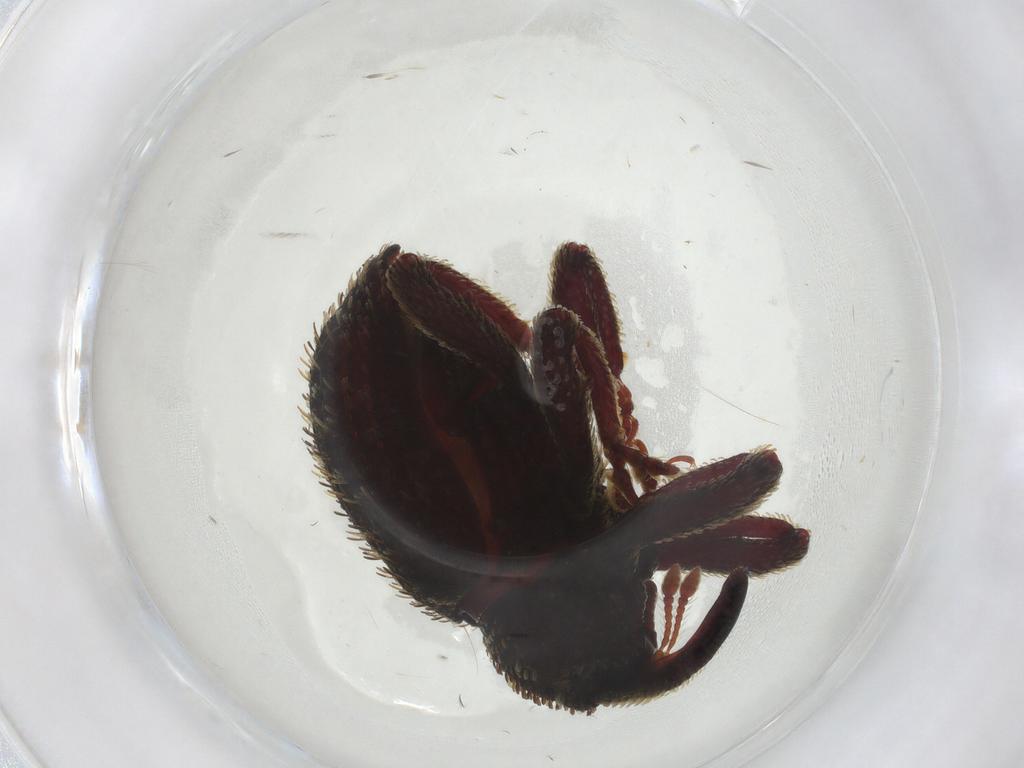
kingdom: Animalia
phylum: Arthropoda
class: Insecta
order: Coleoptera
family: Curculionidae
